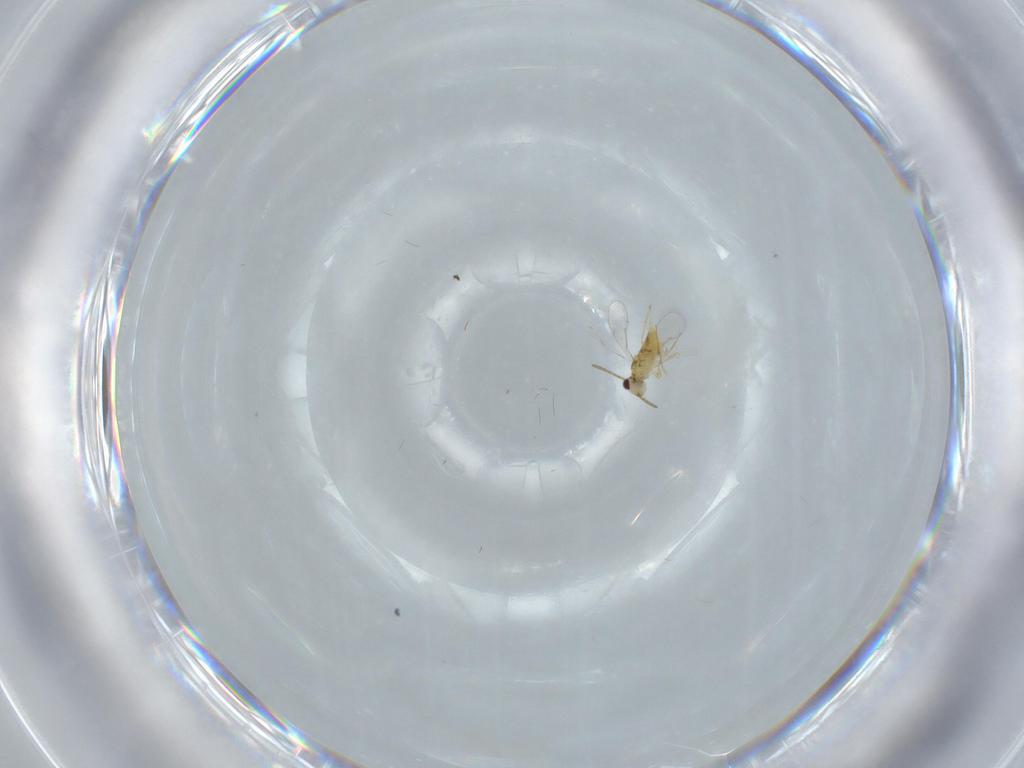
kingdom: Animalia
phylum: Arthropoda
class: Insecta
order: Hymenoptera
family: Aphelinidae
